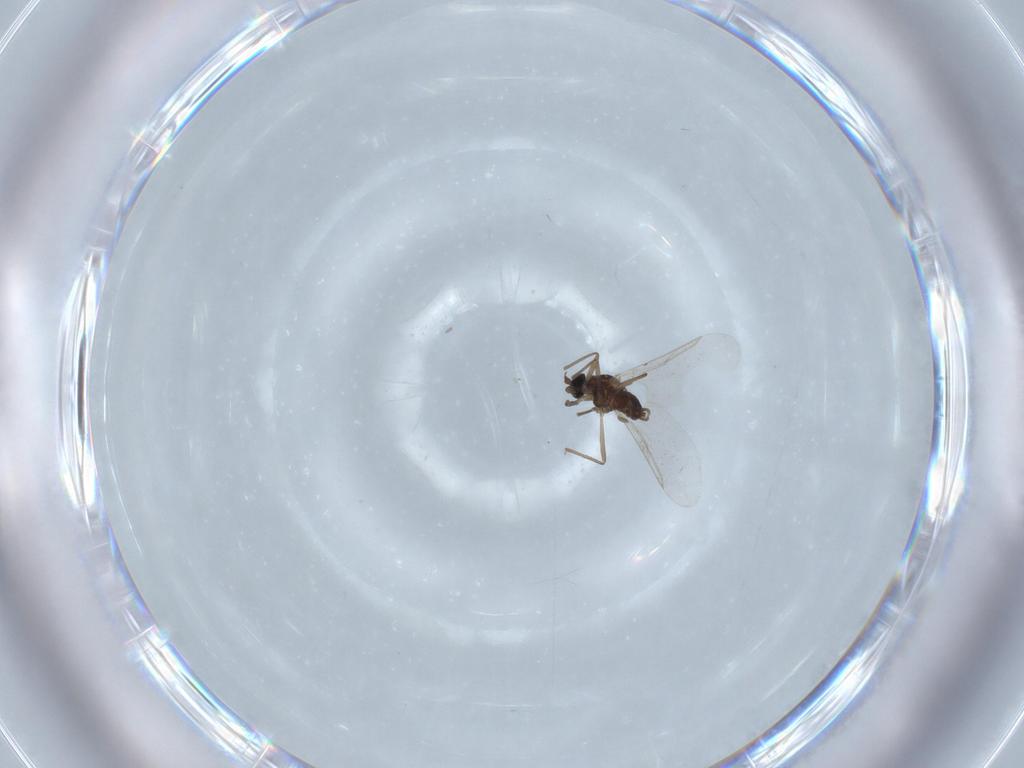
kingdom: Animalia
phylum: Arthropoda
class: Insecta
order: Diptera
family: Cecidomyiidae
